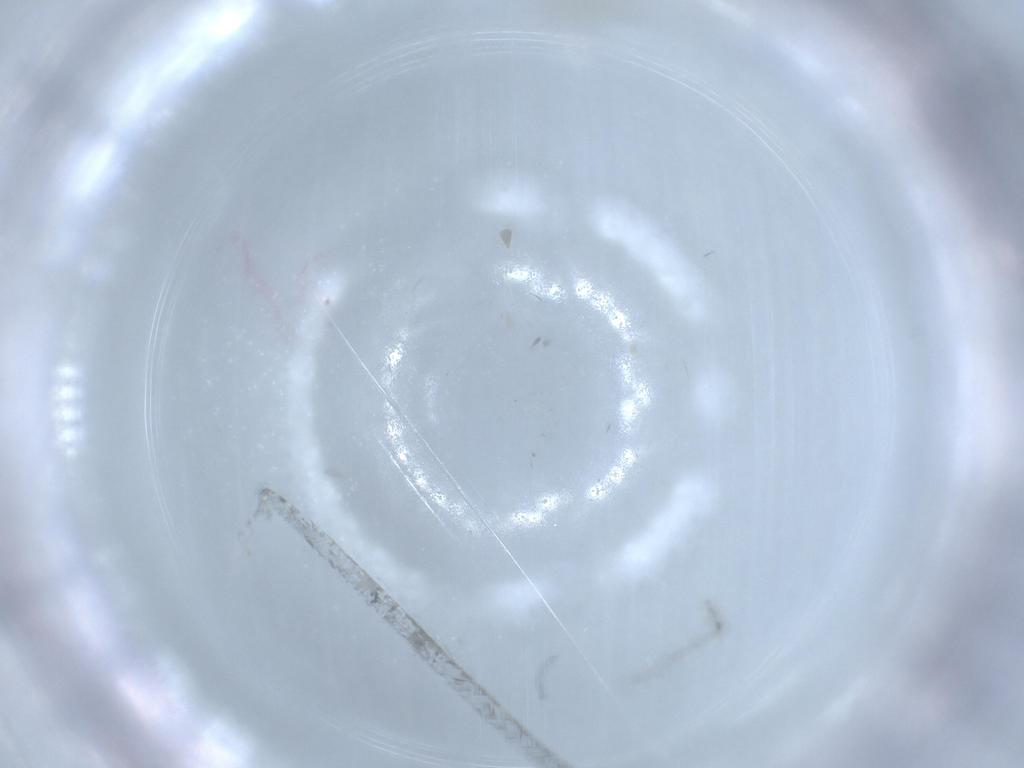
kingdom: Animalia
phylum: Arthropoda
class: Insecta
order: Diptera
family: Chironomidae
